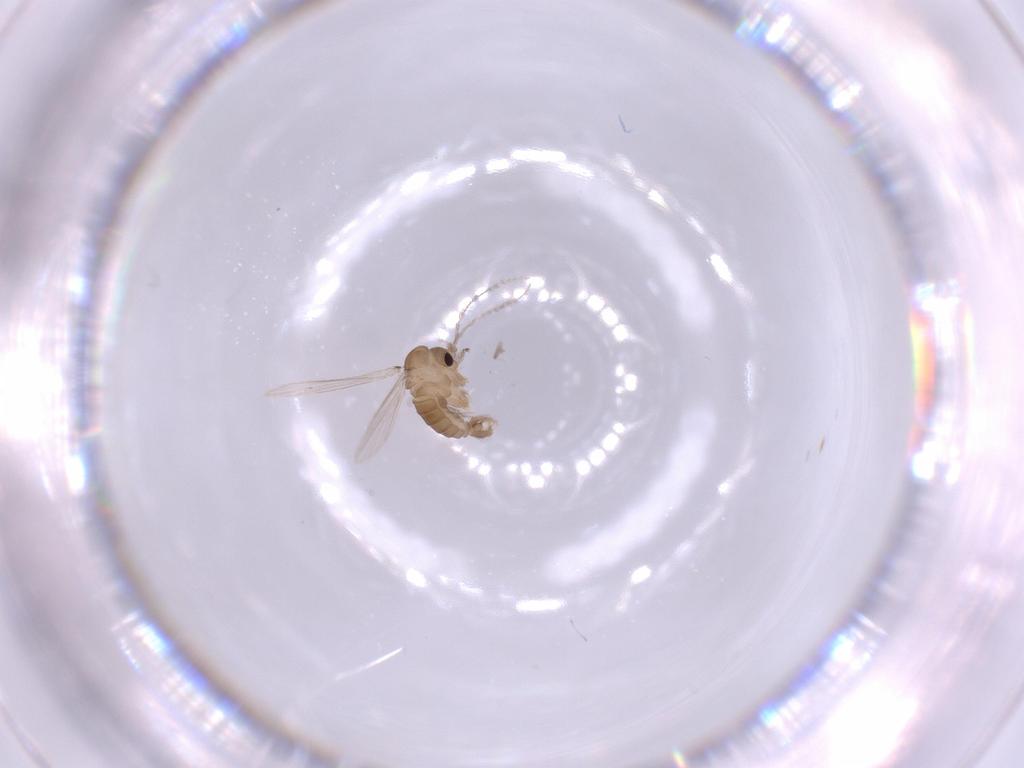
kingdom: Animalia
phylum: Arthropoda
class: Insecta
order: Diptera
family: Psychodidae
